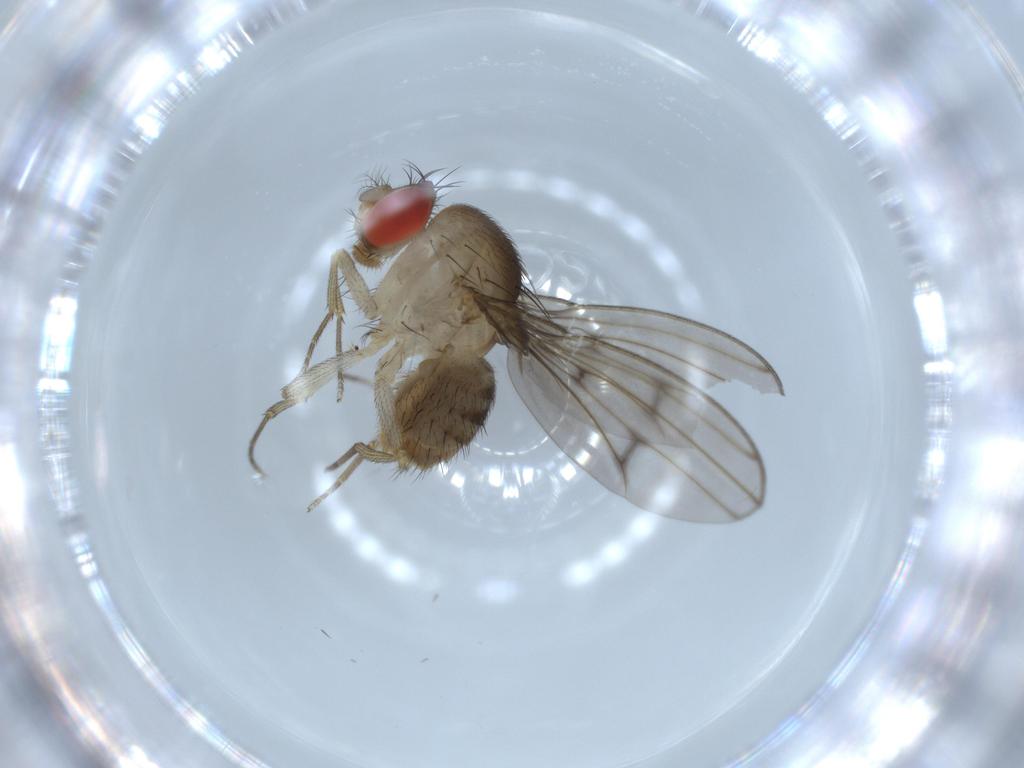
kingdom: Animalia
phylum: Arthropoda
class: Insecta
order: Diptera
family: Drosophilidae
